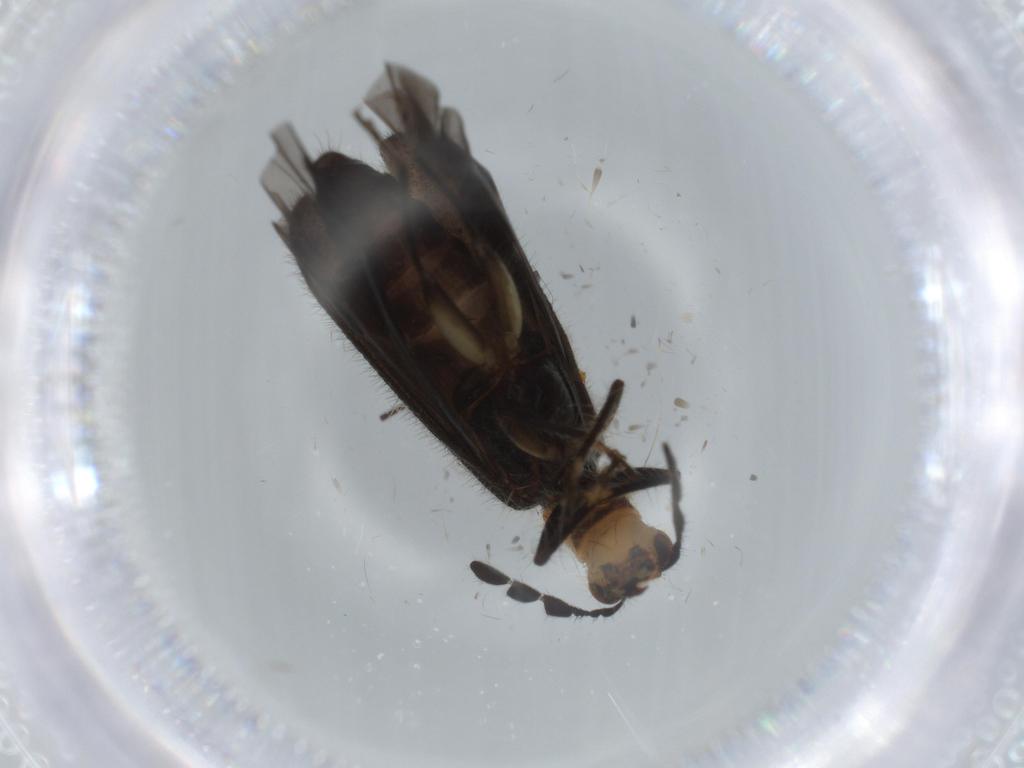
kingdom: Animalia
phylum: Arthropoda
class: Insecta
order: Coleoptera
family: Cleridae
